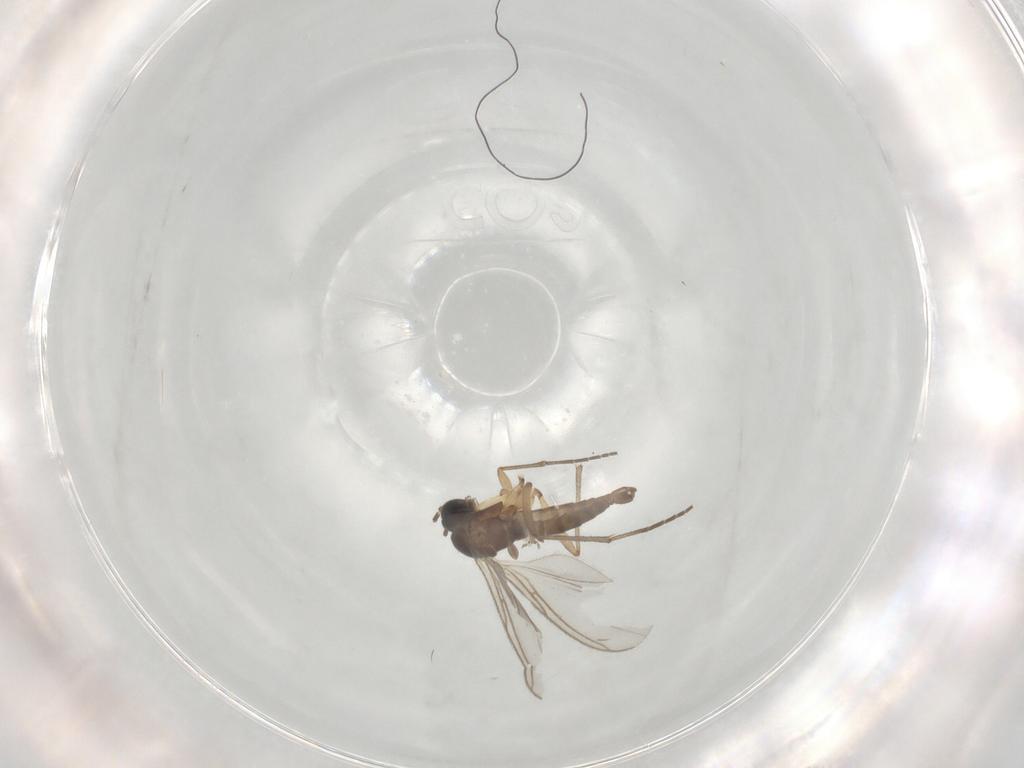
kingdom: Animalia
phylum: Arthropoda
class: Insecta
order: Diptera
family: Sciaridae
